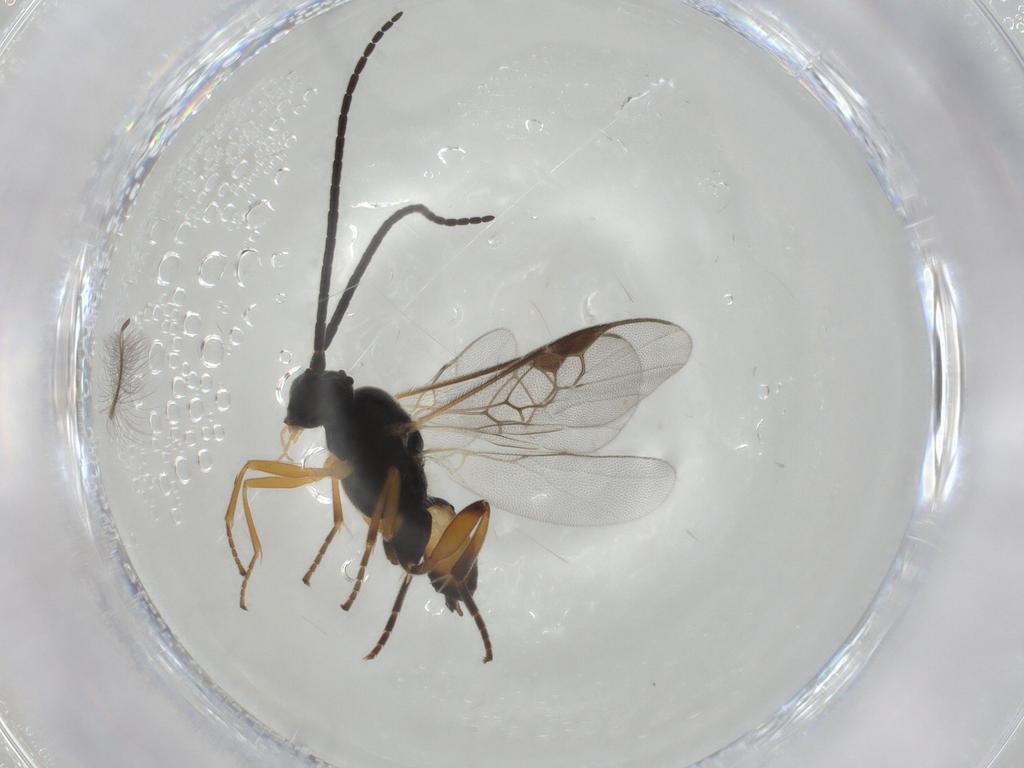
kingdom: Animalia
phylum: Arthropoda
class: Insecta
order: Hymenoptera
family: Braconidae
